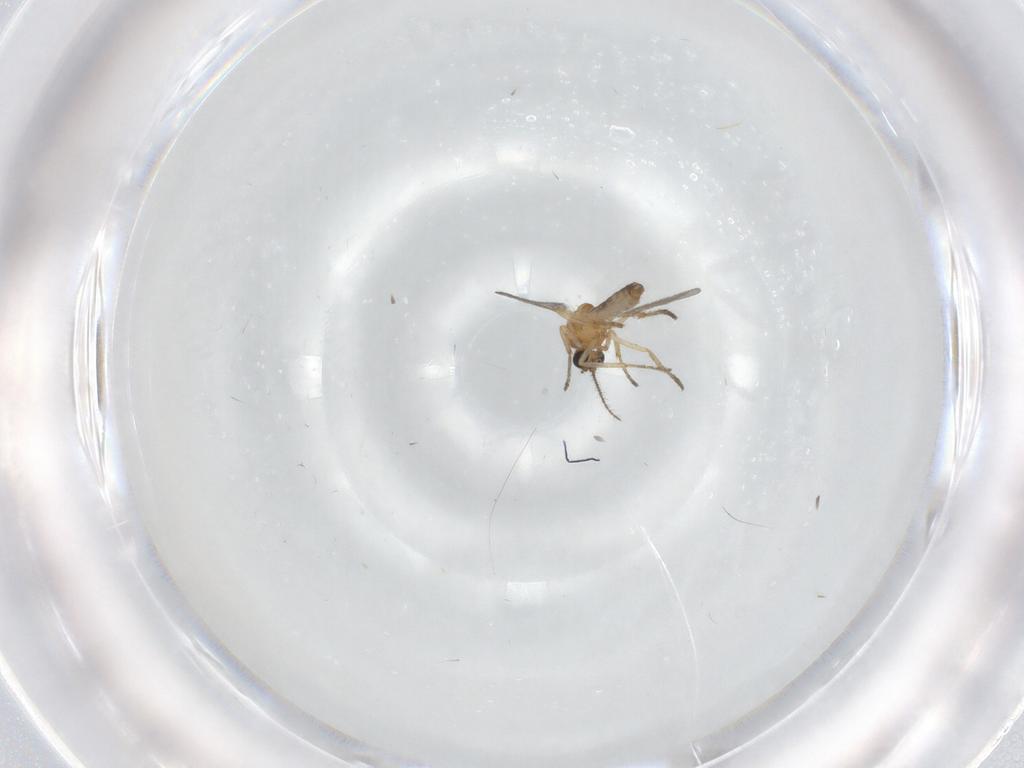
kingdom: Animalia
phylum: Arthropoda
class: Insecta
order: Diptera
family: Ceratopogonidae
